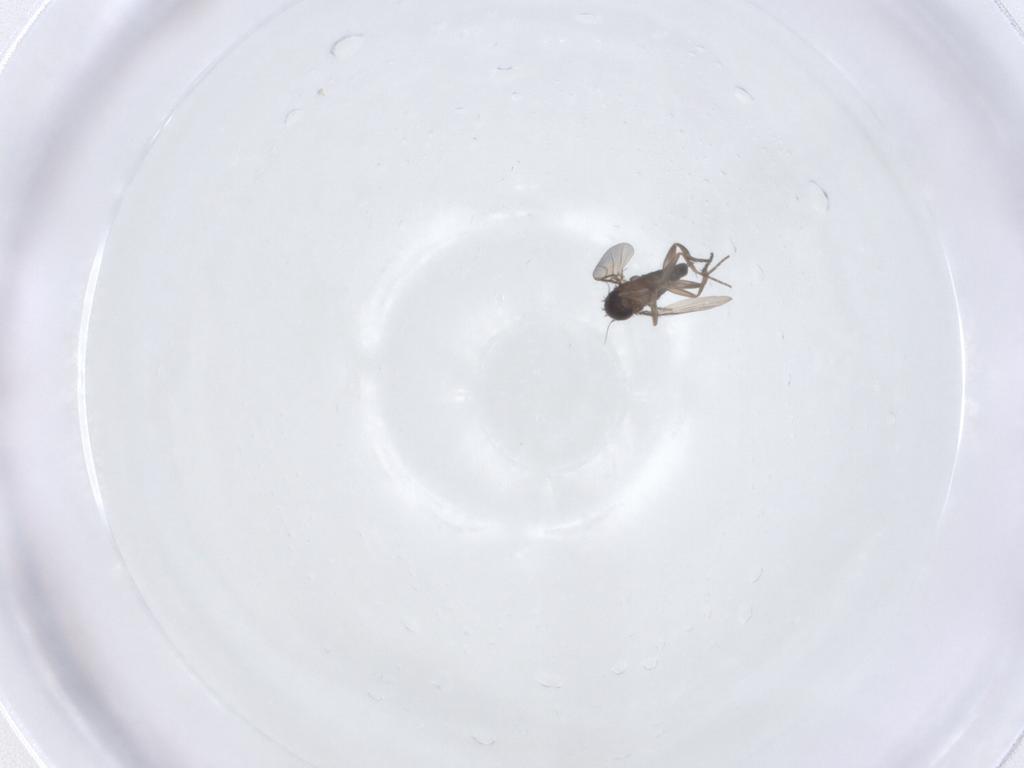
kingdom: Animalia
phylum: Arthropoda
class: Insecta
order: Diptera
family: Phoridae
